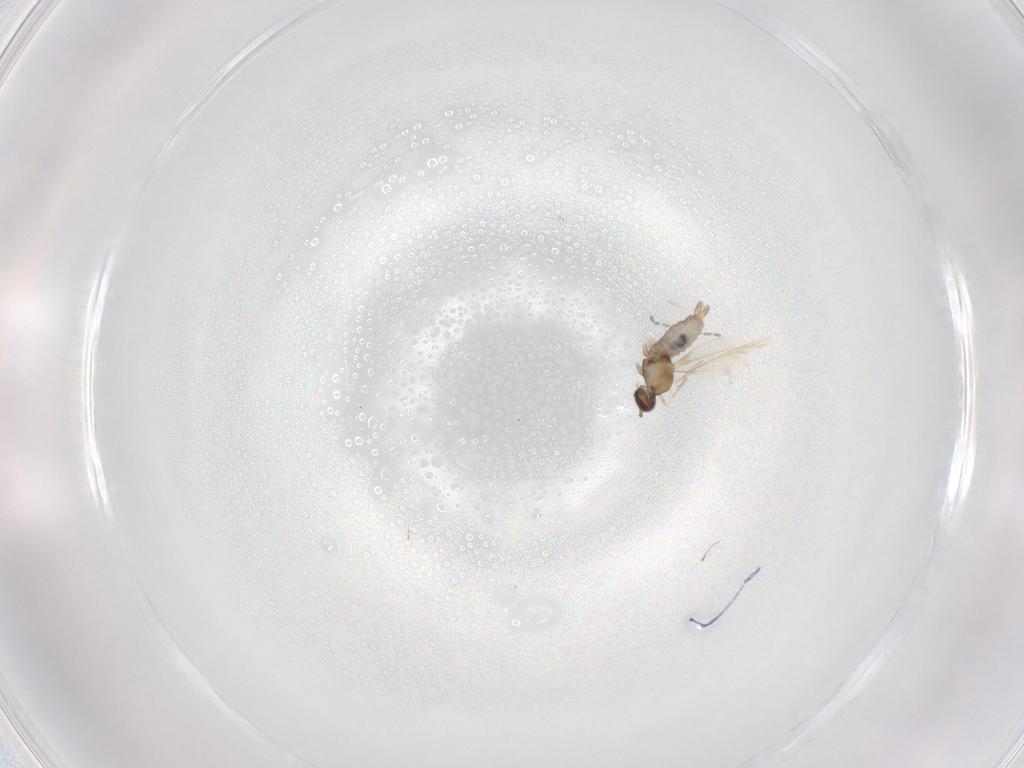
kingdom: Animalia
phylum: Arthropoda
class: Insecta
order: Diptera
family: Cecidomyiidae
